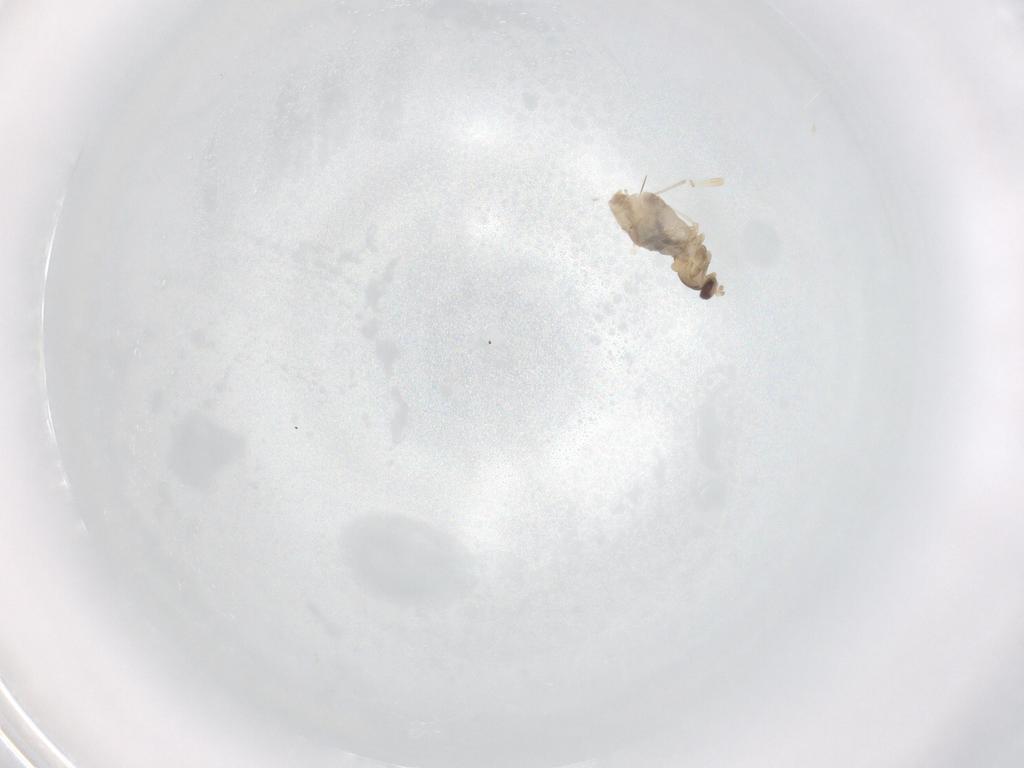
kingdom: Animalia
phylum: Arthropoda
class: Insecta
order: Diptera
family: Cecidomyiidae
